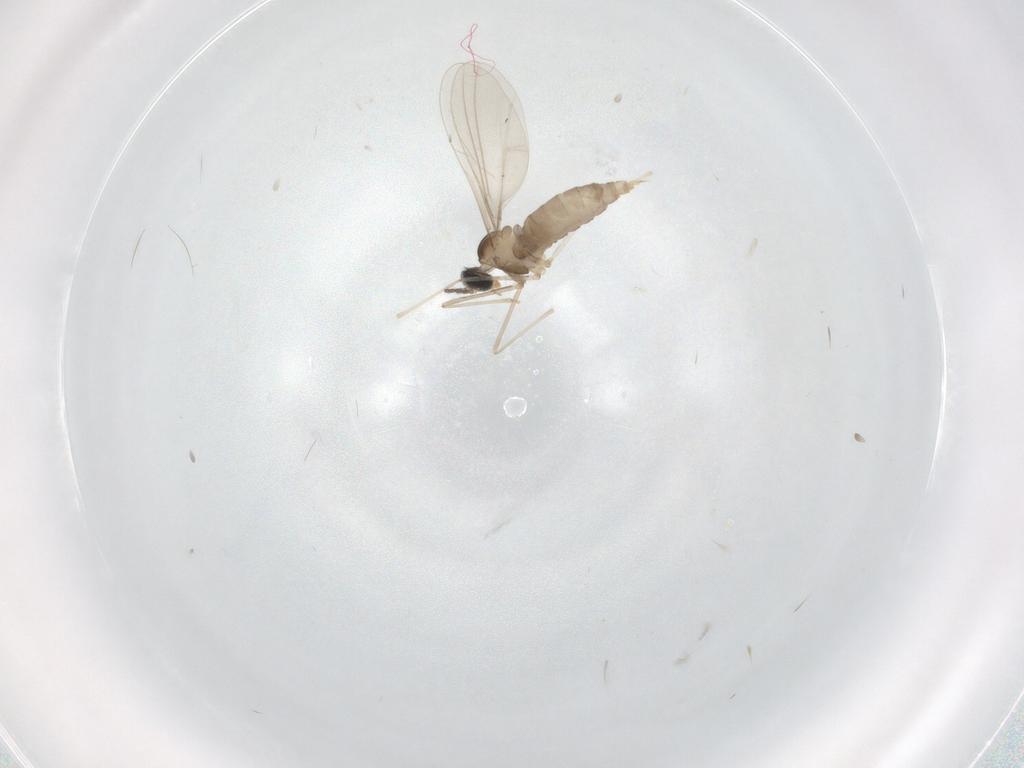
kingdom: Animalia
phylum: Arthropoda
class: Insecta
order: Diptera
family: Cecidomyiidae
